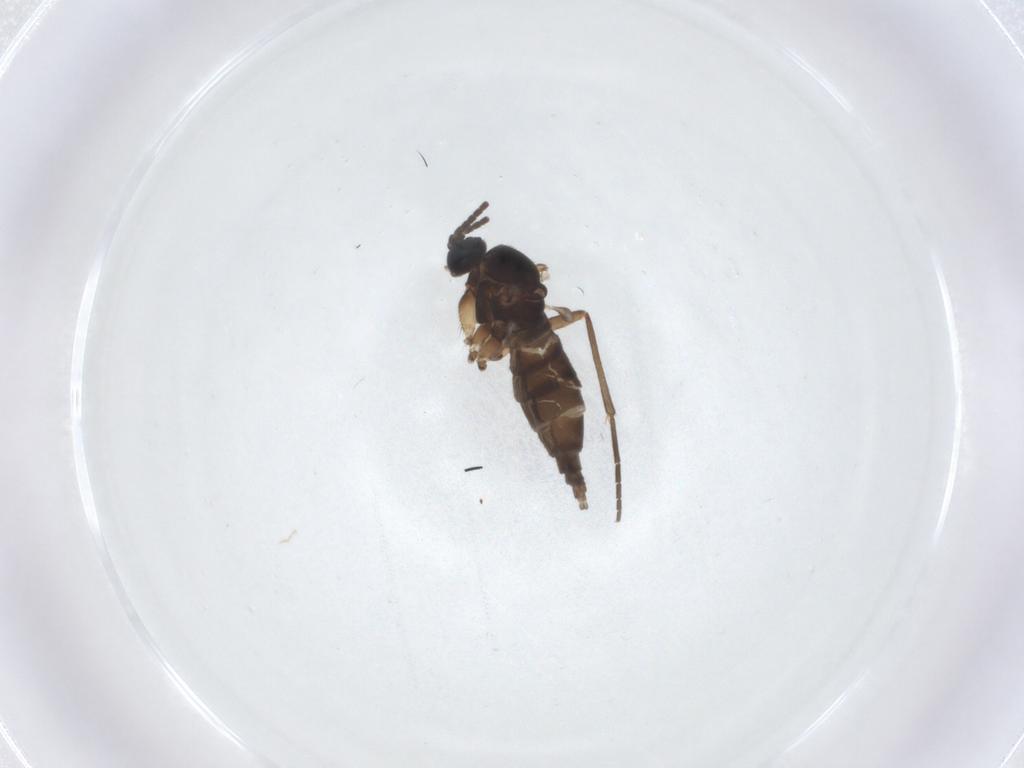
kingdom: Animalia
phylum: Arthropoda
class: Insecta
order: Diptera
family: Sciaridae
